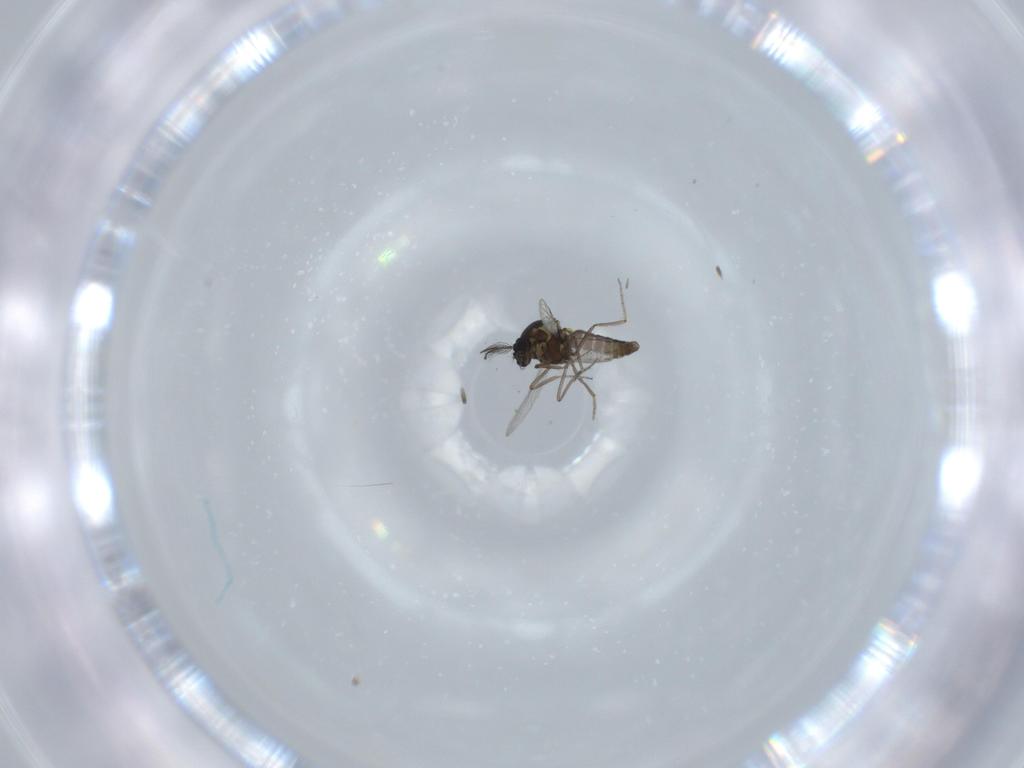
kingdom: Animalia
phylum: Arthropoda
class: Insecta
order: Diptera
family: Ceratopogonidae
